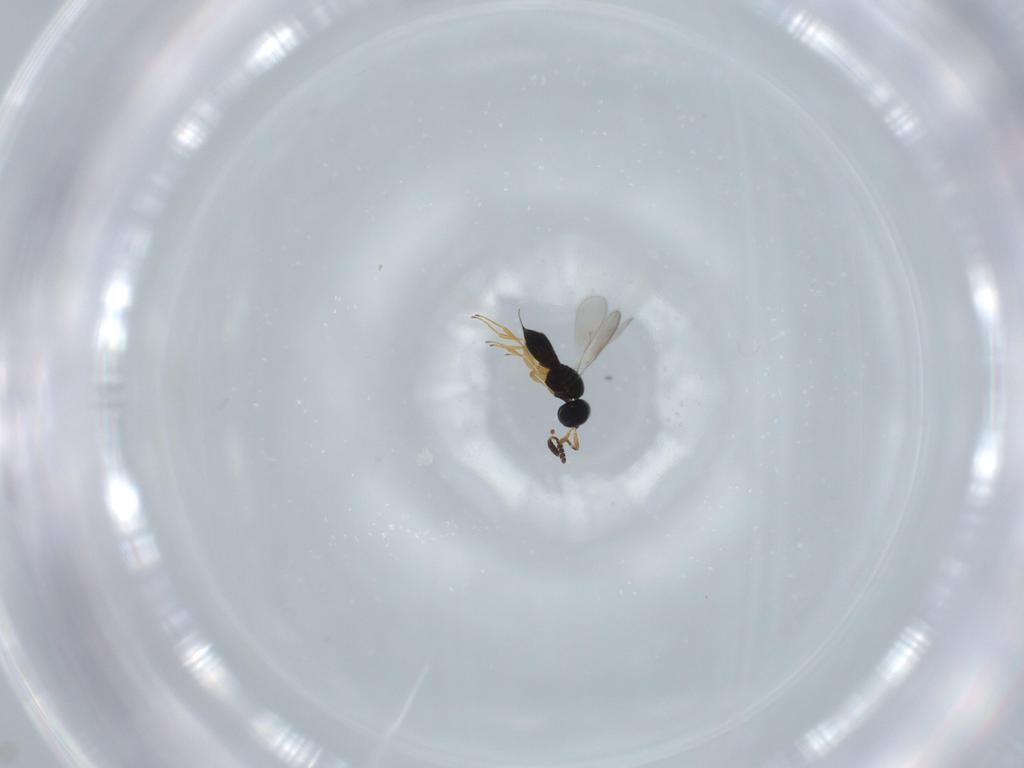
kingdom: Animalia
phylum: Arthropoda
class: Insecta
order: Hymenoptera
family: Scelionidae
